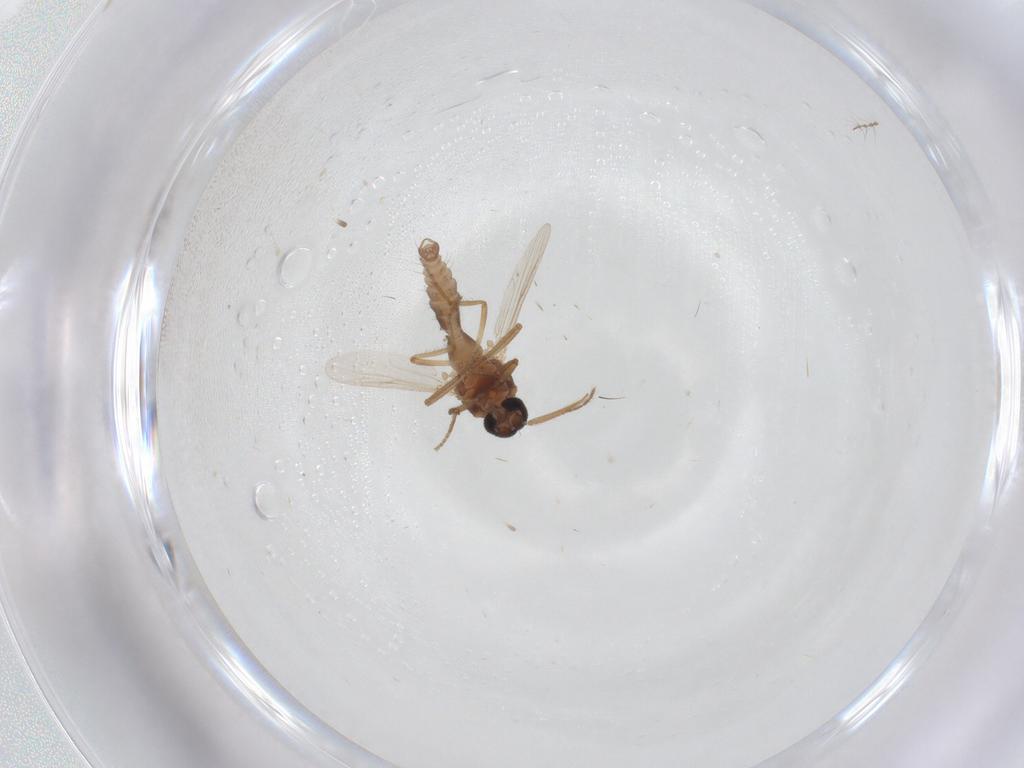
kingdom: Animalia
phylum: Arthropoda
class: Insecta
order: Diptera
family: Ceratopogonidae
